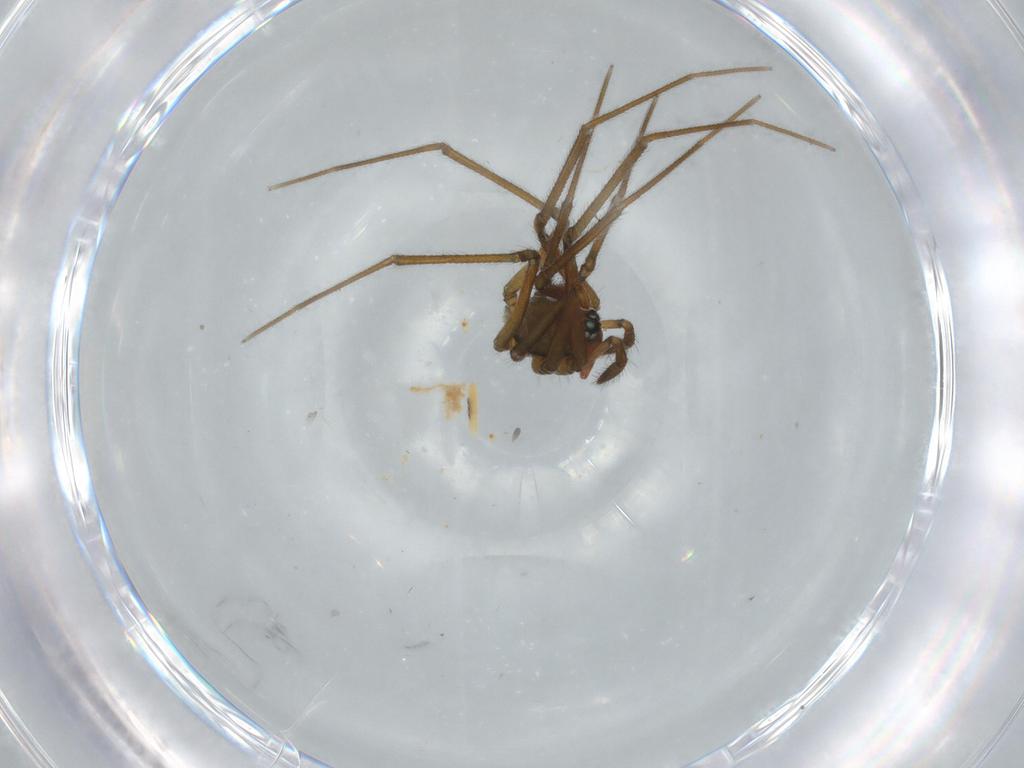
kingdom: Animalia
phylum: Arthropoda
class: Arachnida
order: Araneae
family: Linyphiidae
